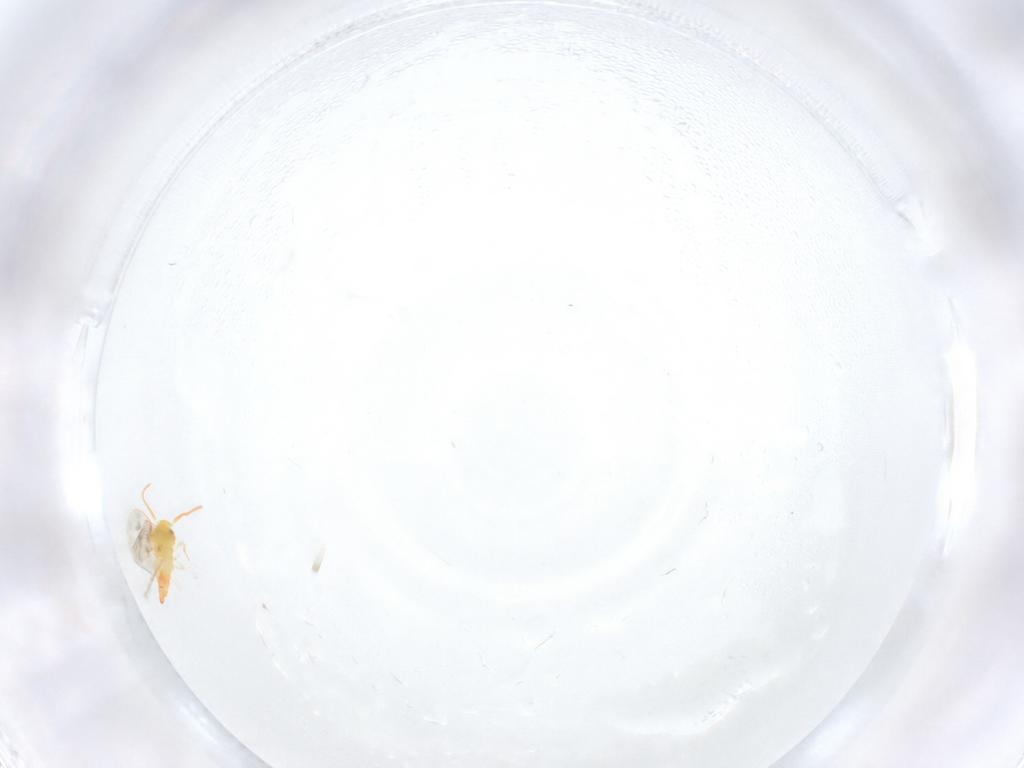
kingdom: Animalia
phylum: Arthropoda
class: Insecta
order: Hemiptera
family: Aleyrodidae
